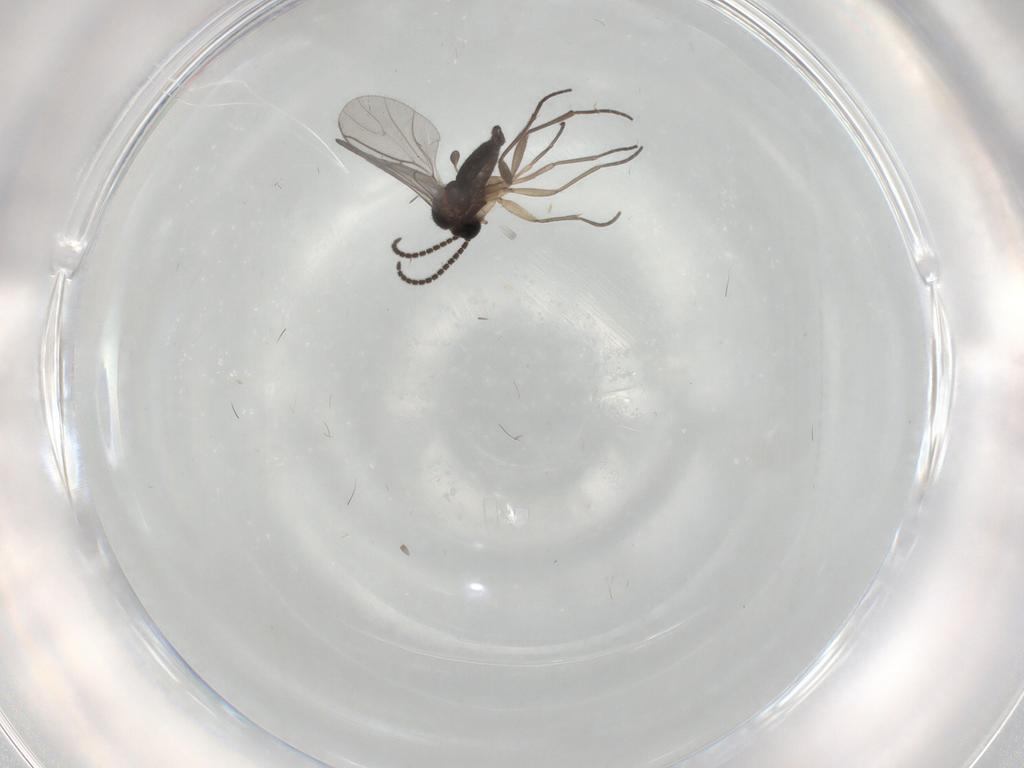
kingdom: Animalia
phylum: Arthropoda
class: Insecta
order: Diptera
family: Sciaridae
